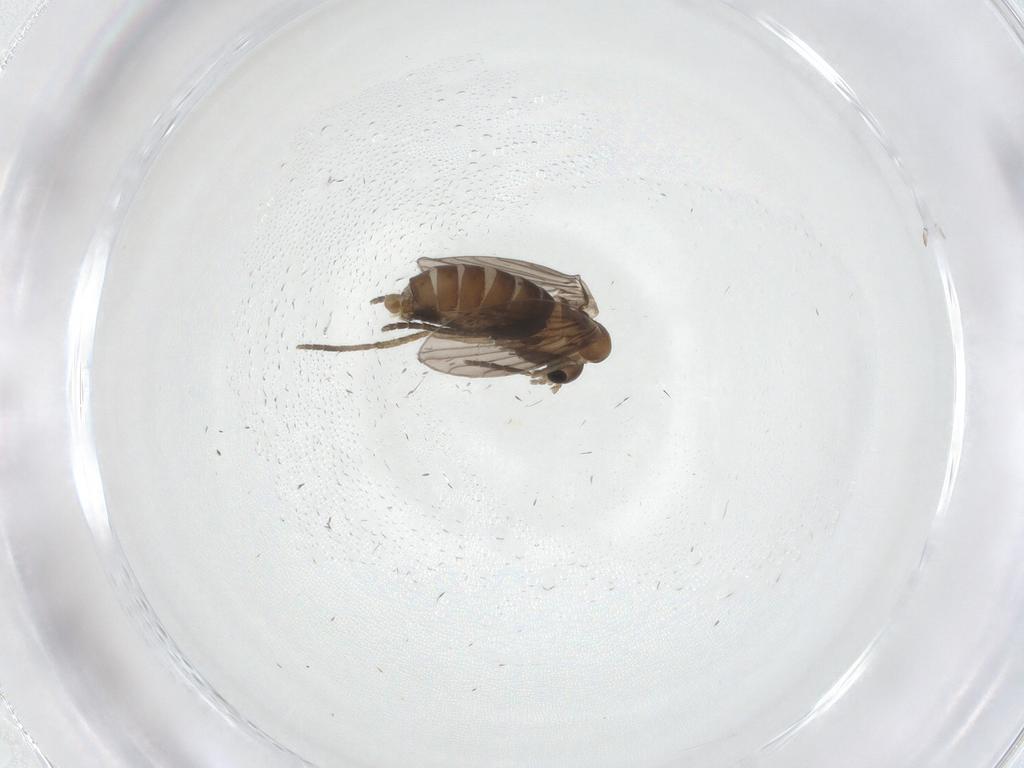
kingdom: Animalia
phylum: Arthropoda
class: Insecta
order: Diptera
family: Psychodidae
